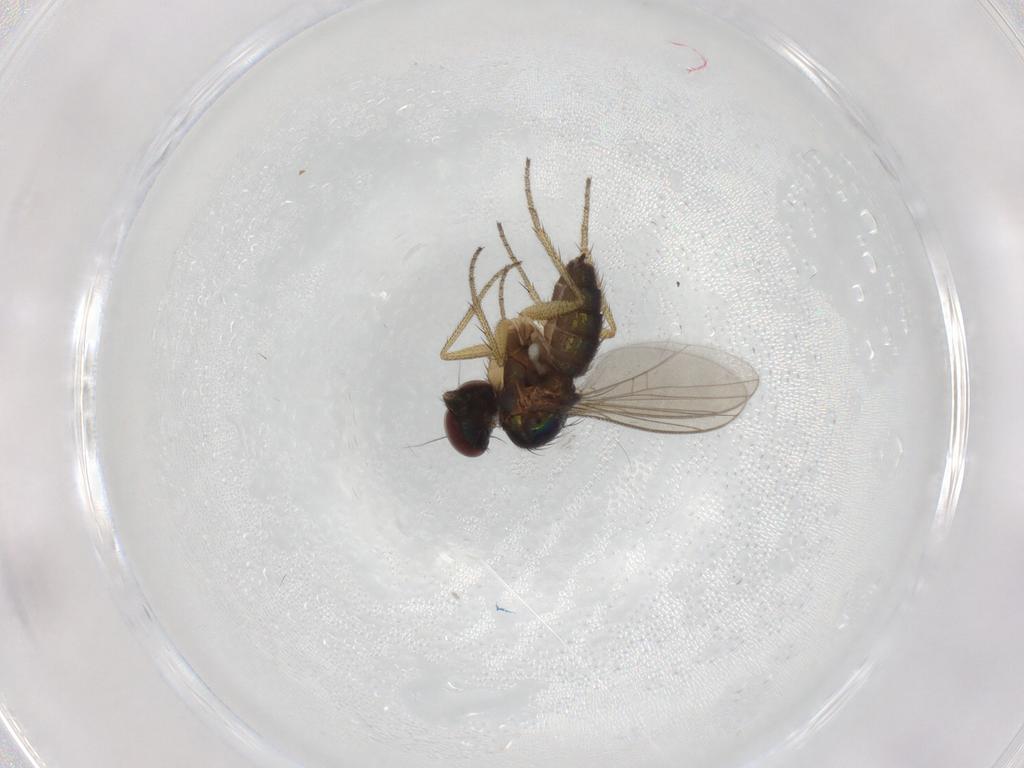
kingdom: Animalia
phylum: Arthropoda
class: Insecta
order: Diptera
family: Dolichopodidae
